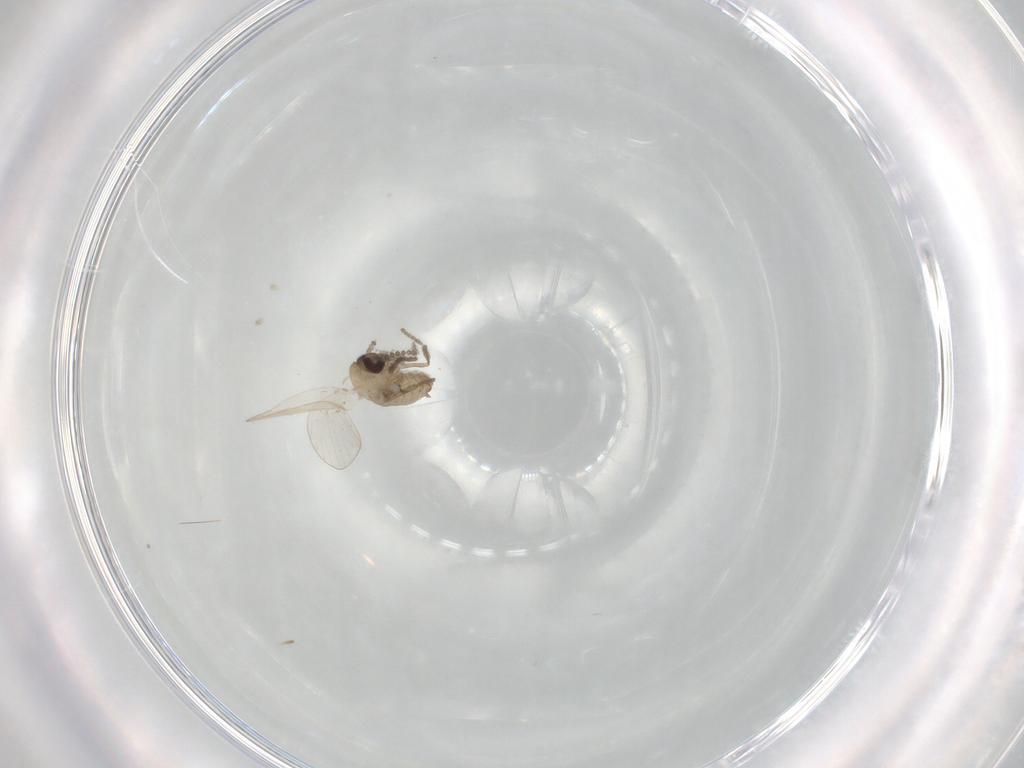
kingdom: Animalia
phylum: Arthropoda
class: Insecta
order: Diptera
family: Psychodidae
